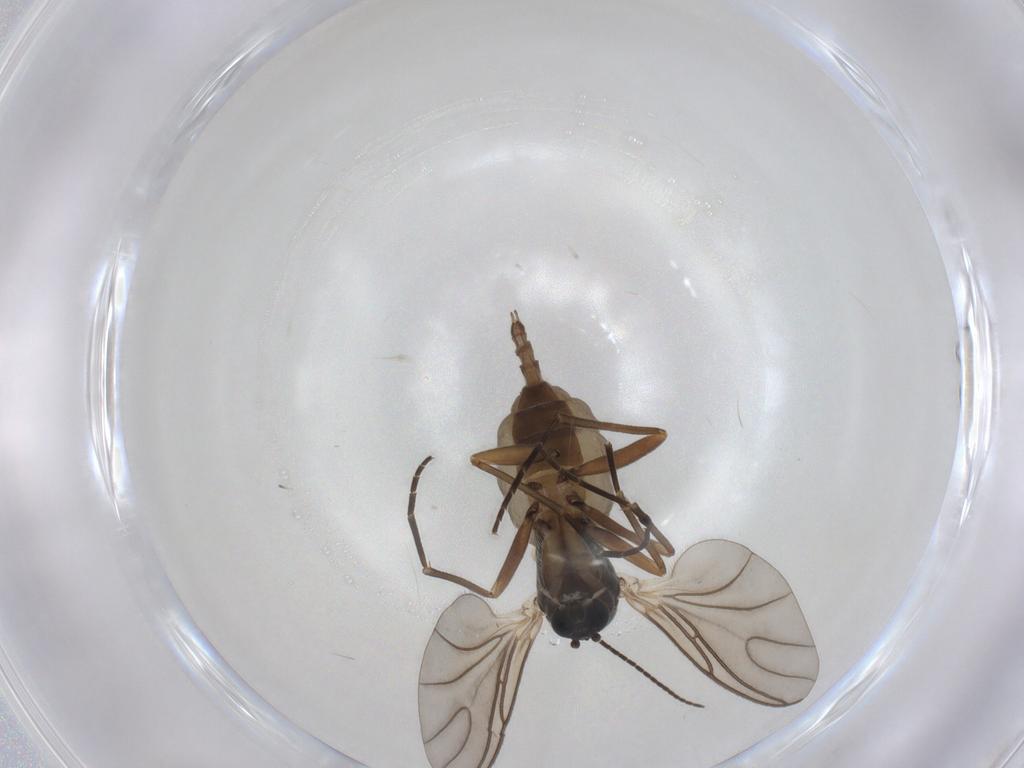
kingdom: Animalia
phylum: Arthropoda
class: Insecta
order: Diptera
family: Sciaridae
